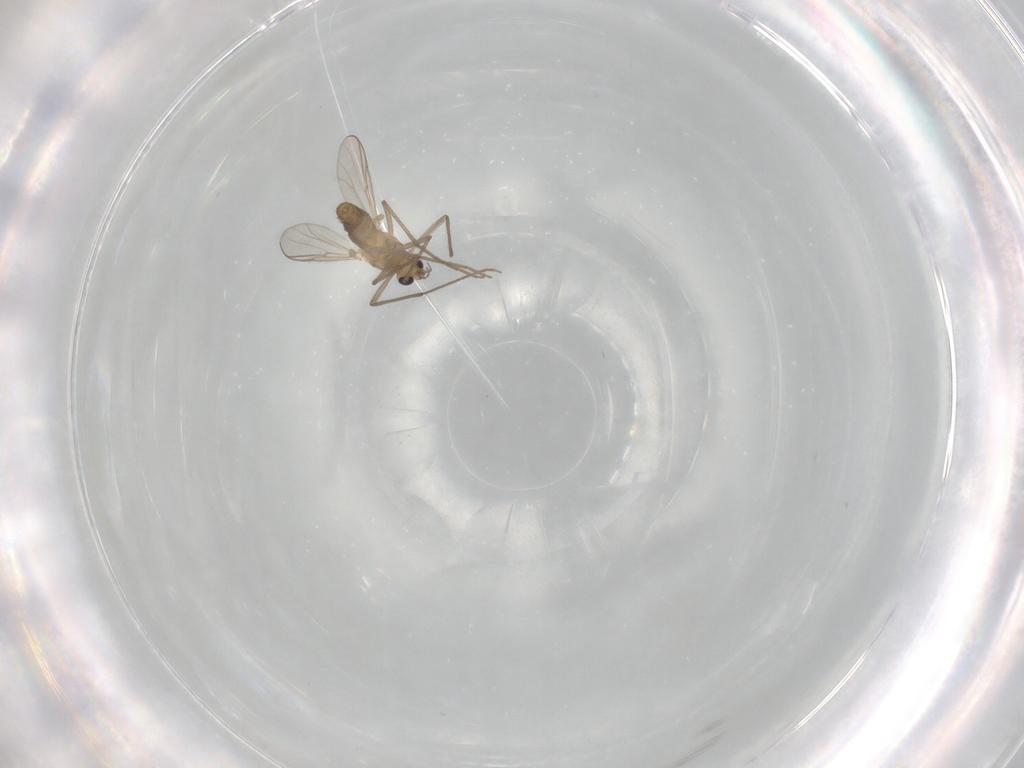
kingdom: Animalia
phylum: Arthropoda
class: Insecta
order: Diptera
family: Chironomidae
